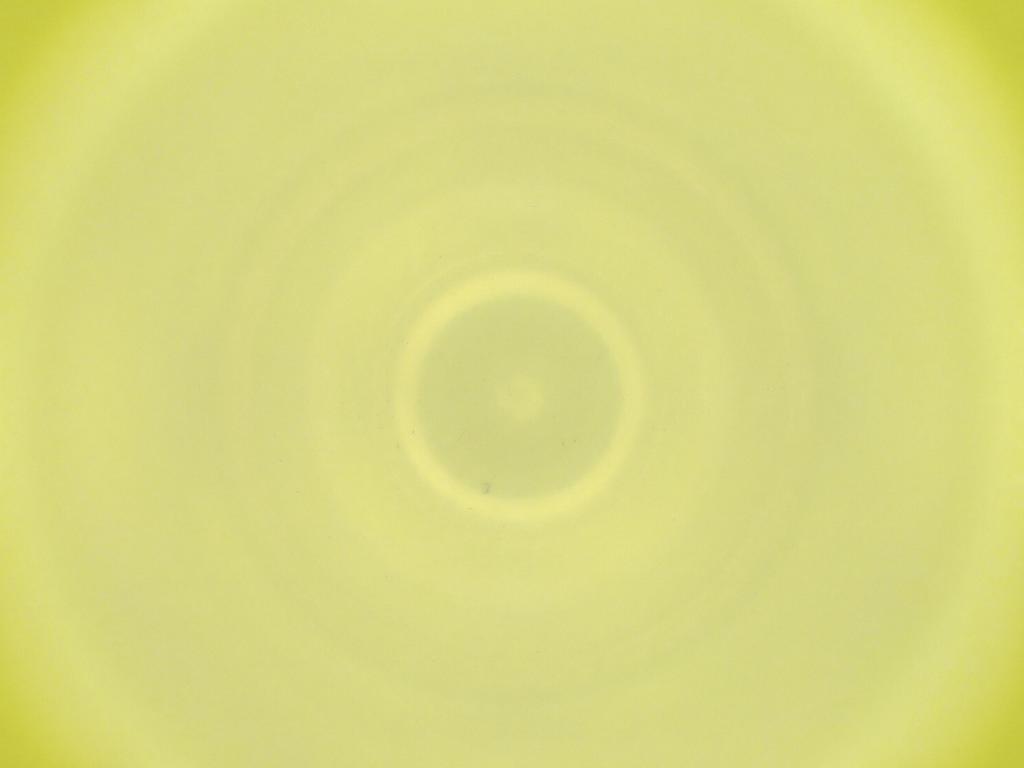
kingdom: Animalia
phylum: Arthropoda
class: Insecta
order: Diptera
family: Cecidomyiidae
